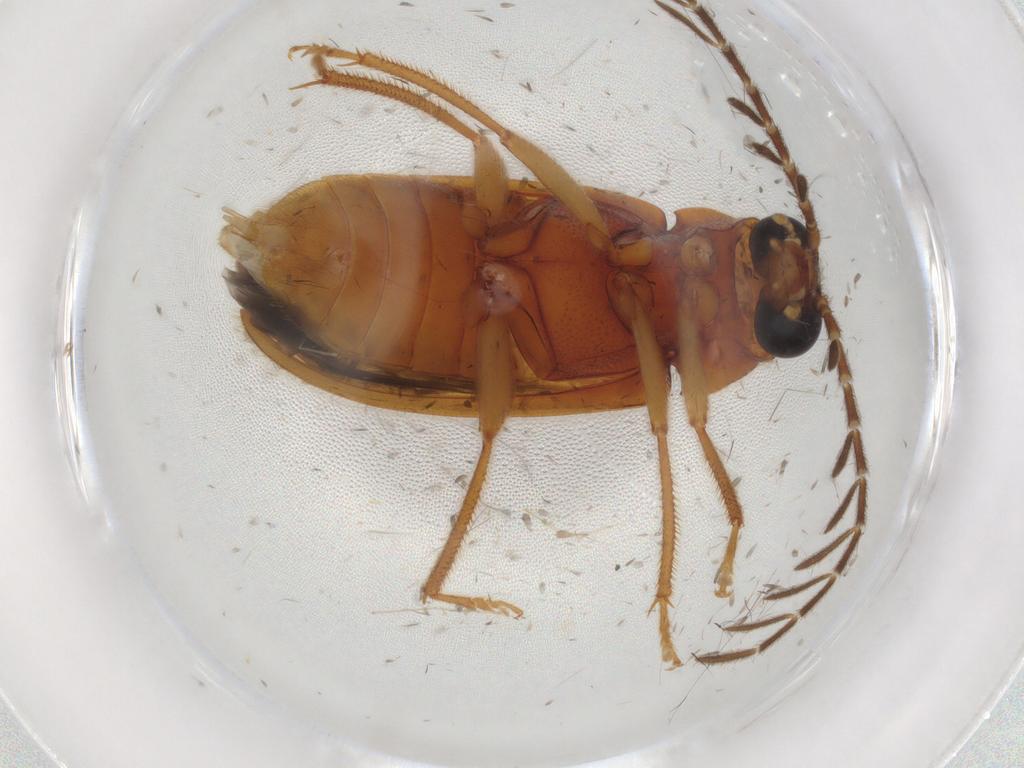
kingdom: Animalia
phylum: Arthropoda
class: Insecta
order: Coleoptera
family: Ptilodactylidae
